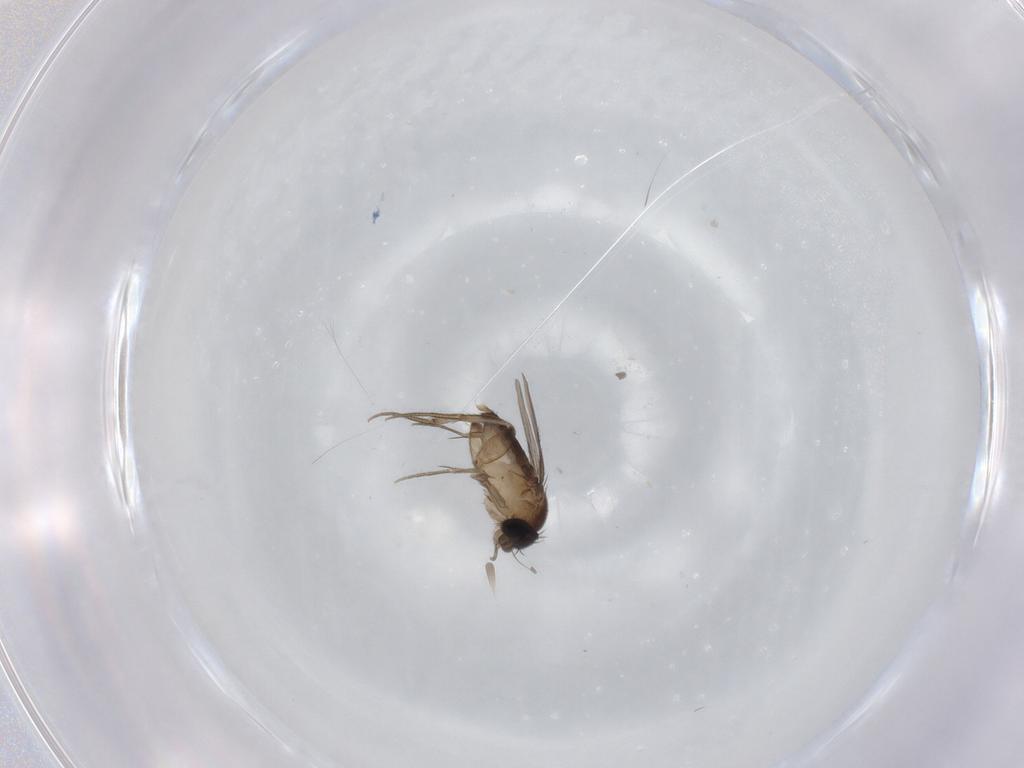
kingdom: Animalia
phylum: Arthropoda
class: Insecta
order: Diptera
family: Phoridae
